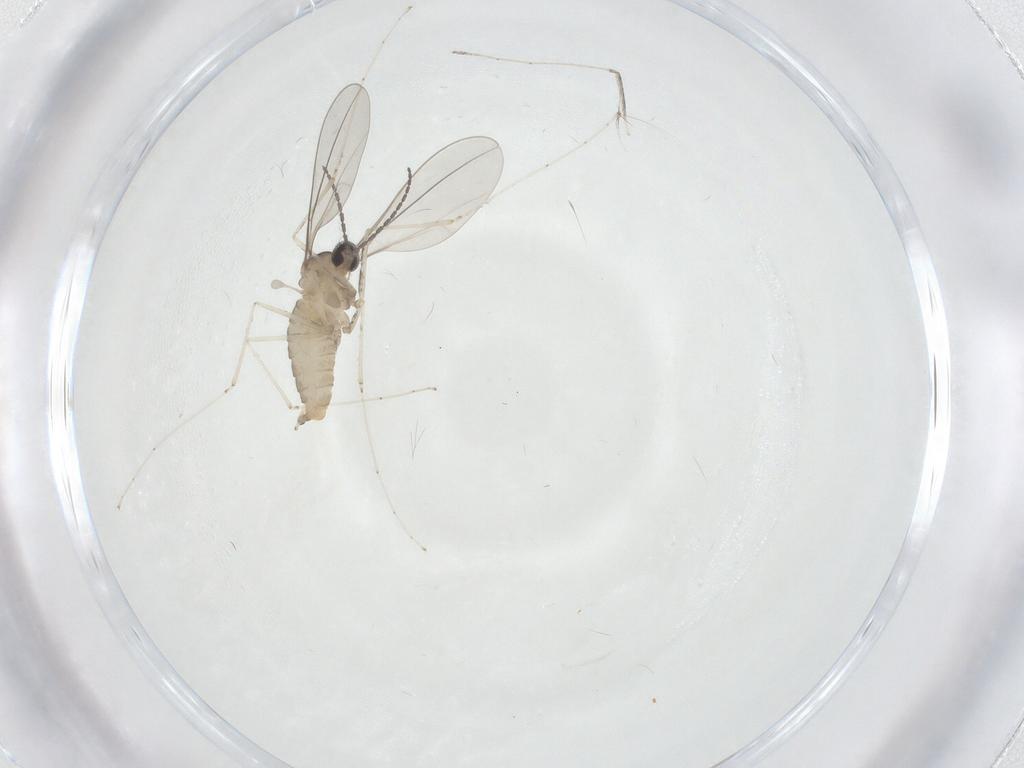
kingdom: Animalia
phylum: Arthropoda
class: Insecta
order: Diptera
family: Cecidomyiidae
